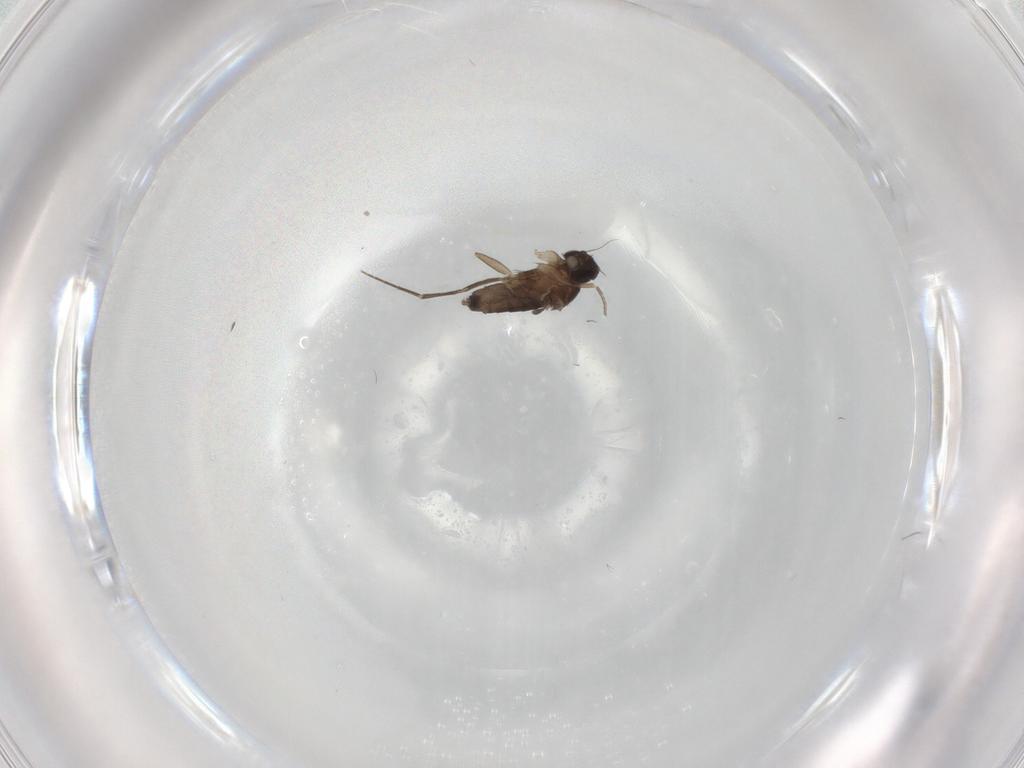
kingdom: Animalia
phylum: Arthropoda
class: Insecta
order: Diptera
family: Phoridae
